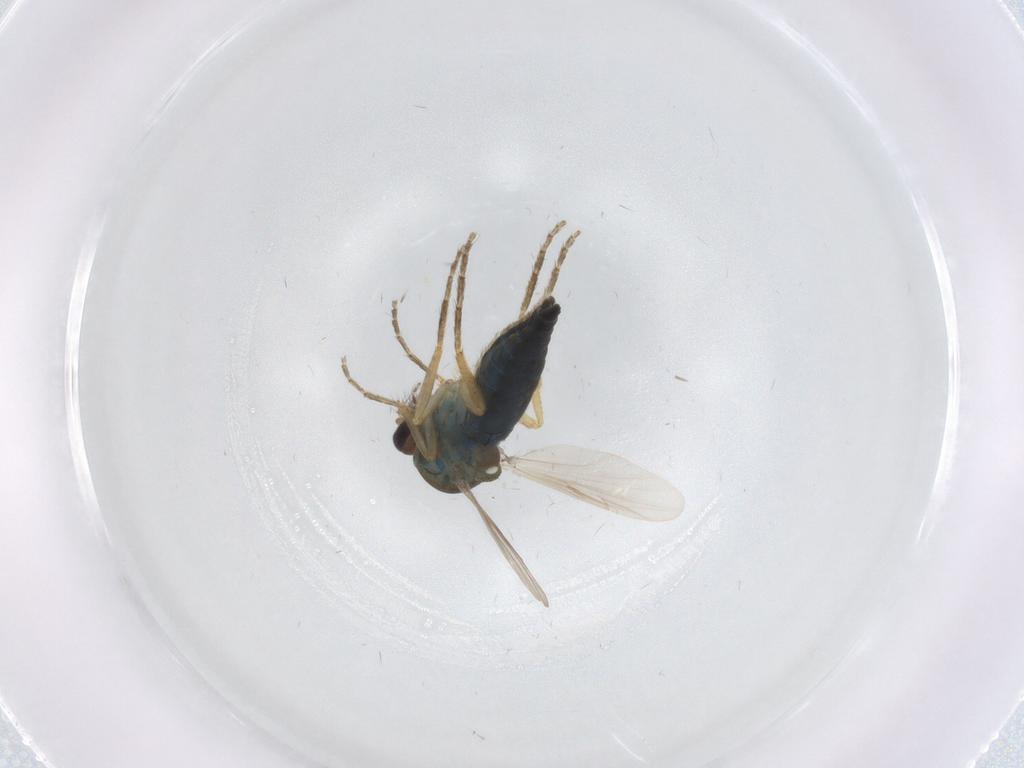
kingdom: Animalia
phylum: Arthropoda
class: Insecta
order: Diptera
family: Ceratopogonidae
